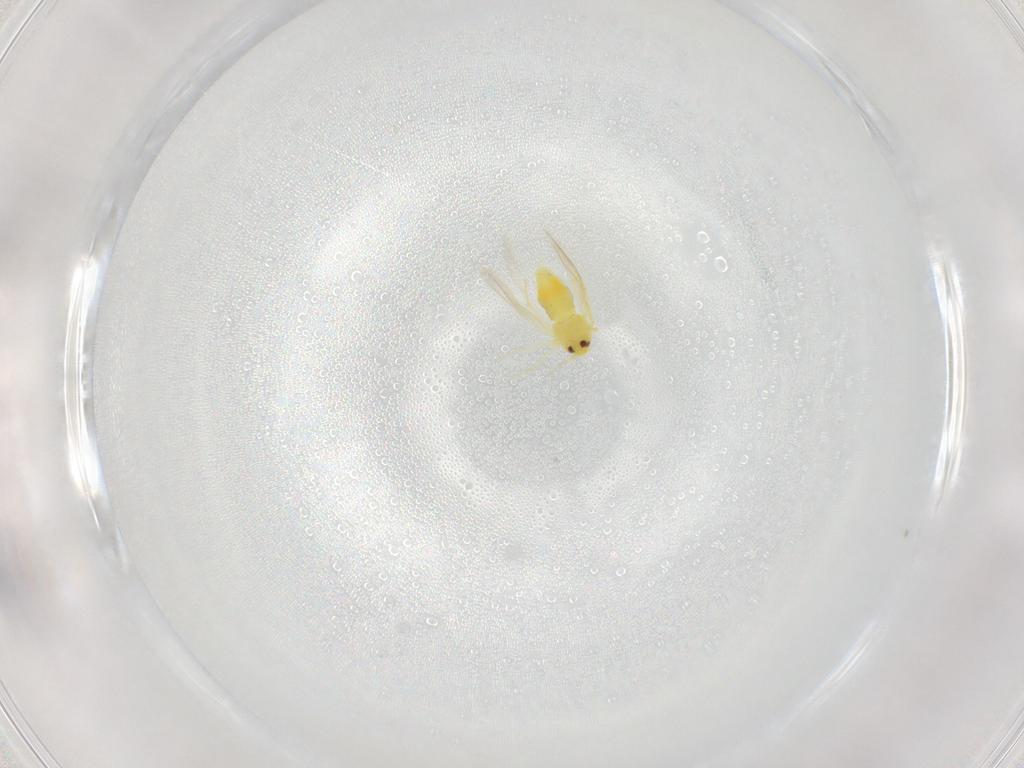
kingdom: Animalia
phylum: Arthropoda
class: Insecta
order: Hemiptera
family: Aleyrodidae
